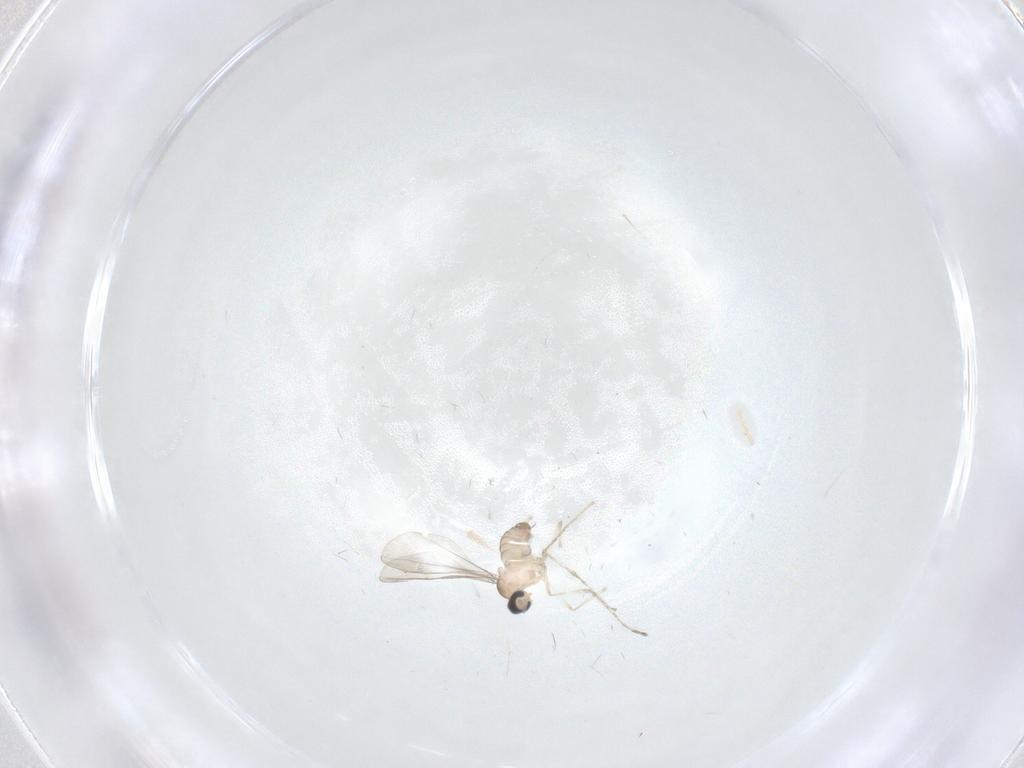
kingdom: Animalia
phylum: Arthropoda
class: Insecta
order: Diptera
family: Cecidomyiidae
